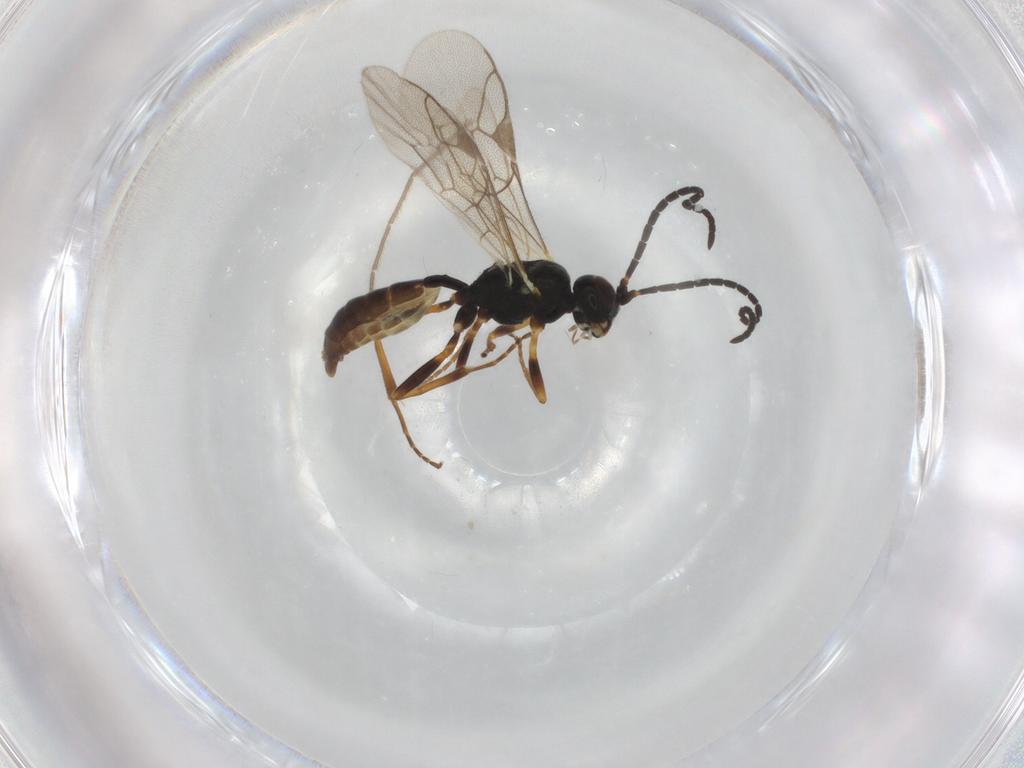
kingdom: Animalia
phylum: Arthropoda
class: Insecta
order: Hymenoptera
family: Ichneumonidae
